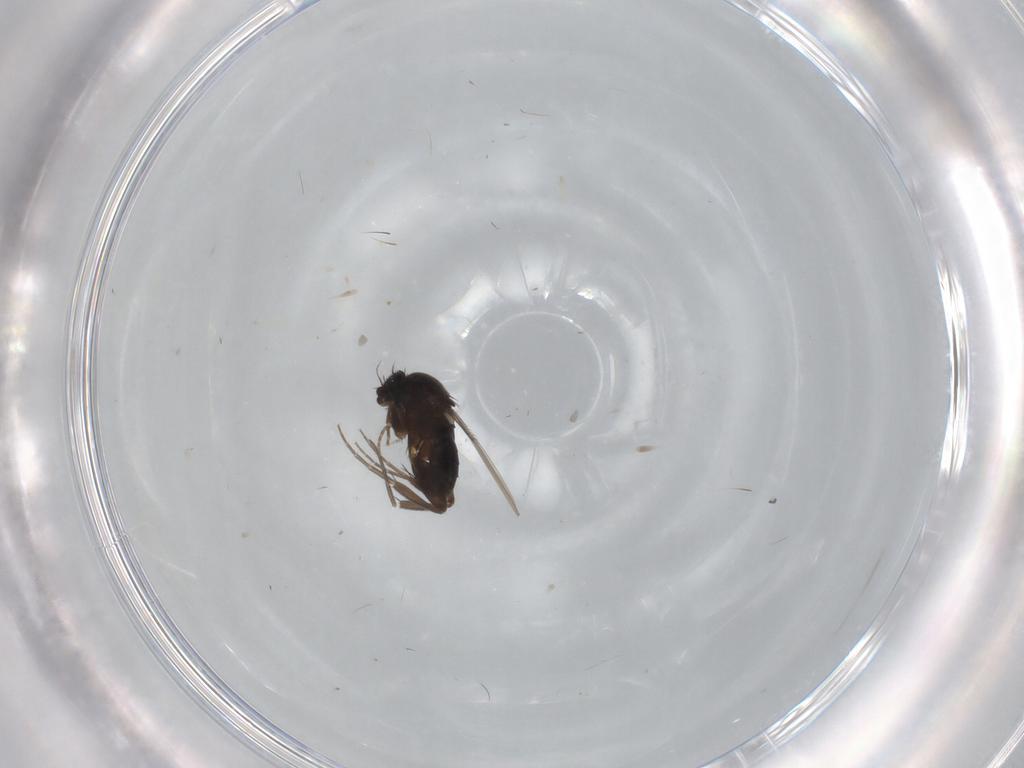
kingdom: Animalia
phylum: Arthropoda
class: Insecta
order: Diptera
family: Phoridae
